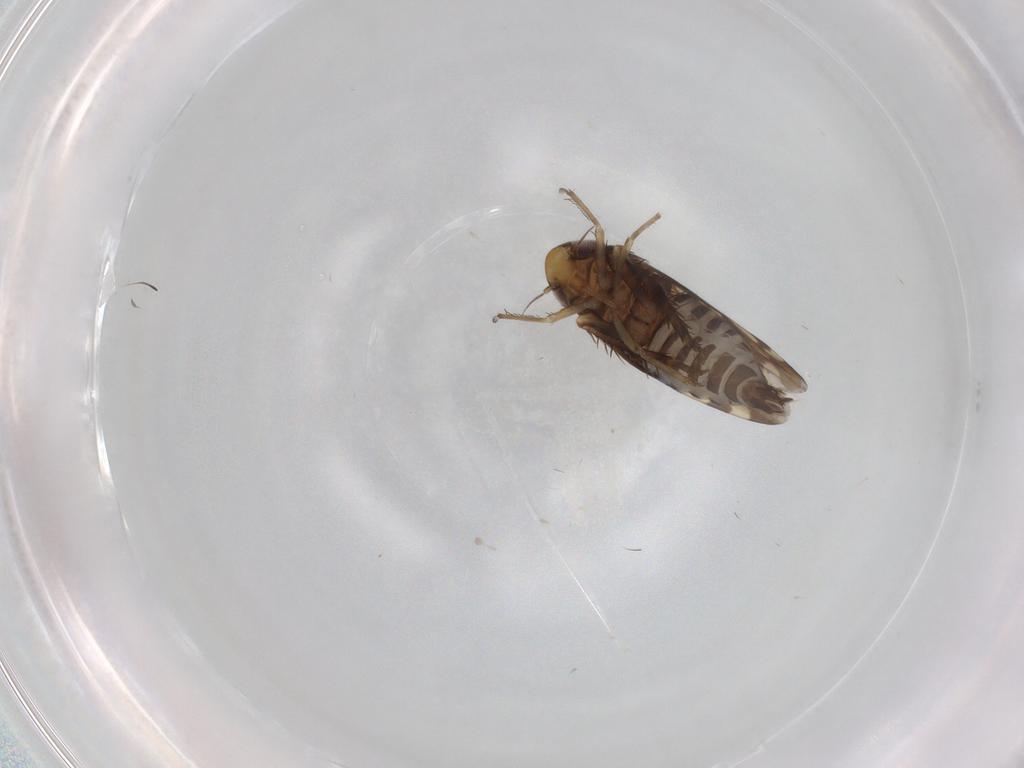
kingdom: Animalia
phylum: Arthropoda
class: Insecta
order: Hemiptera
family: Cicadellidae
